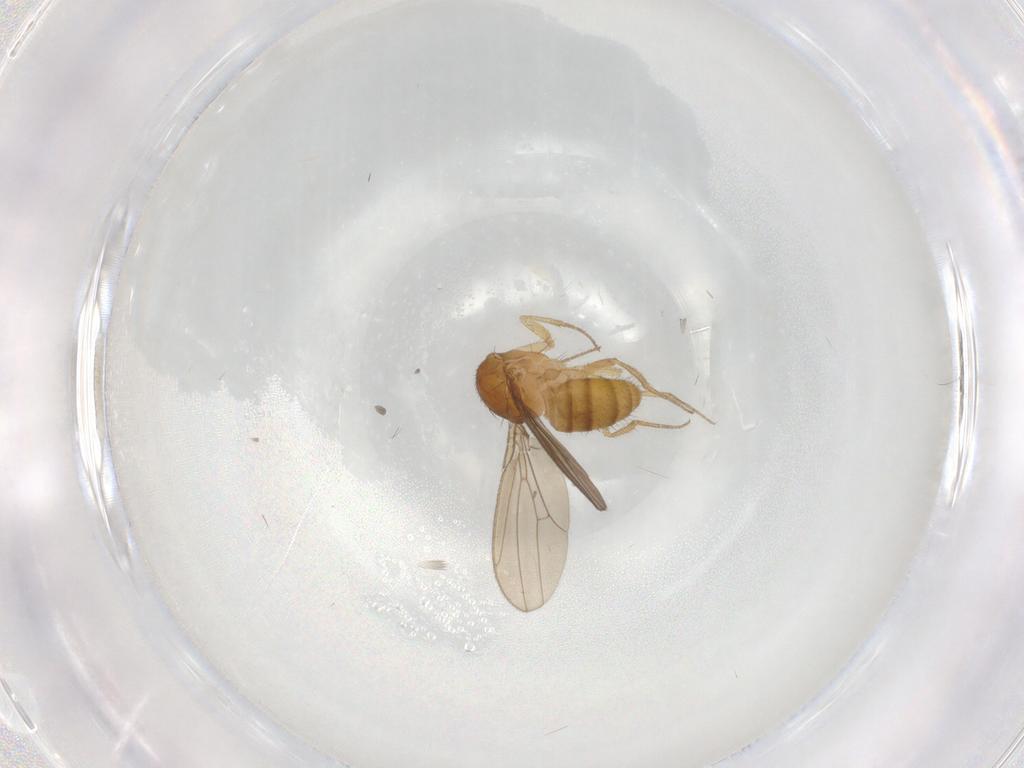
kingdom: Animalia
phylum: Arthropoda
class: Insecta
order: Diptera
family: Drosophilidae
